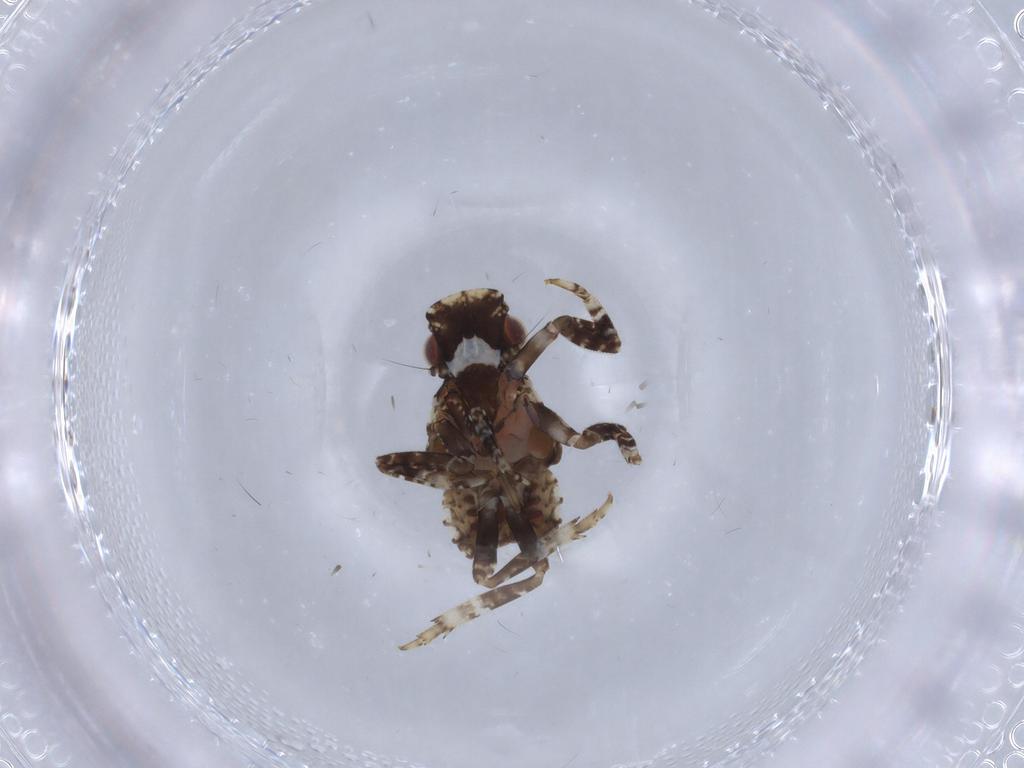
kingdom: Animalia
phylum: Arthropoda
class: Insecta
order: Hemiptera
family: Fulgoridae
